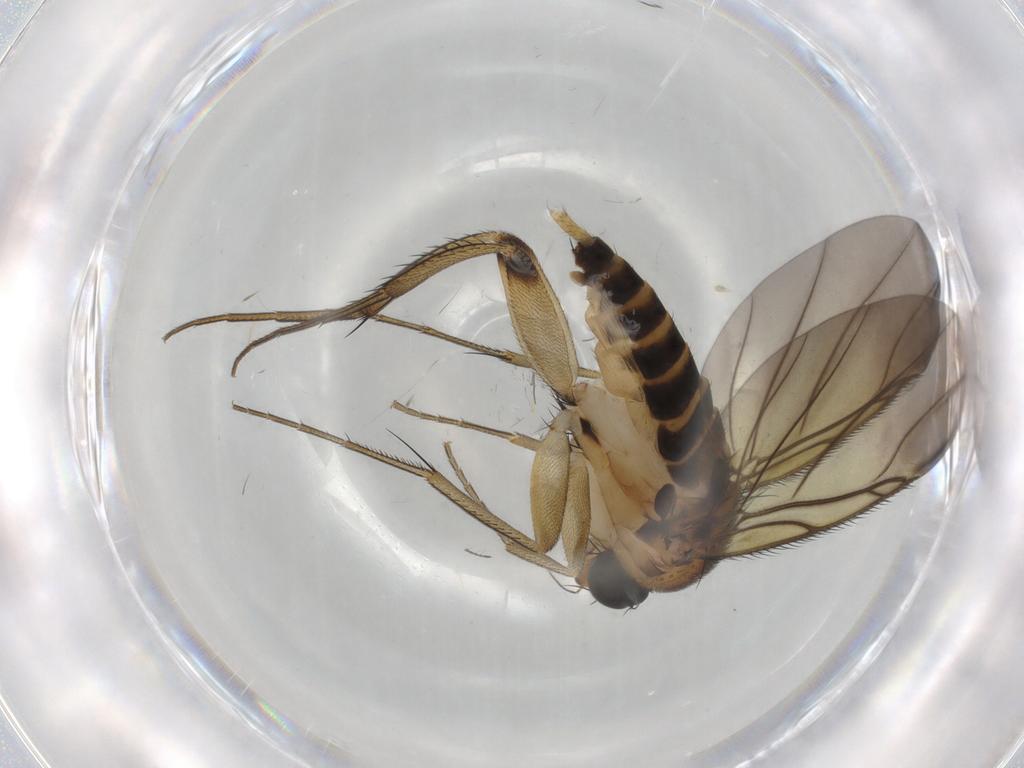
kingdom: Animalia
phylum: Arthropoda
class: Insecta
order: Diptera
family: Phoridae
